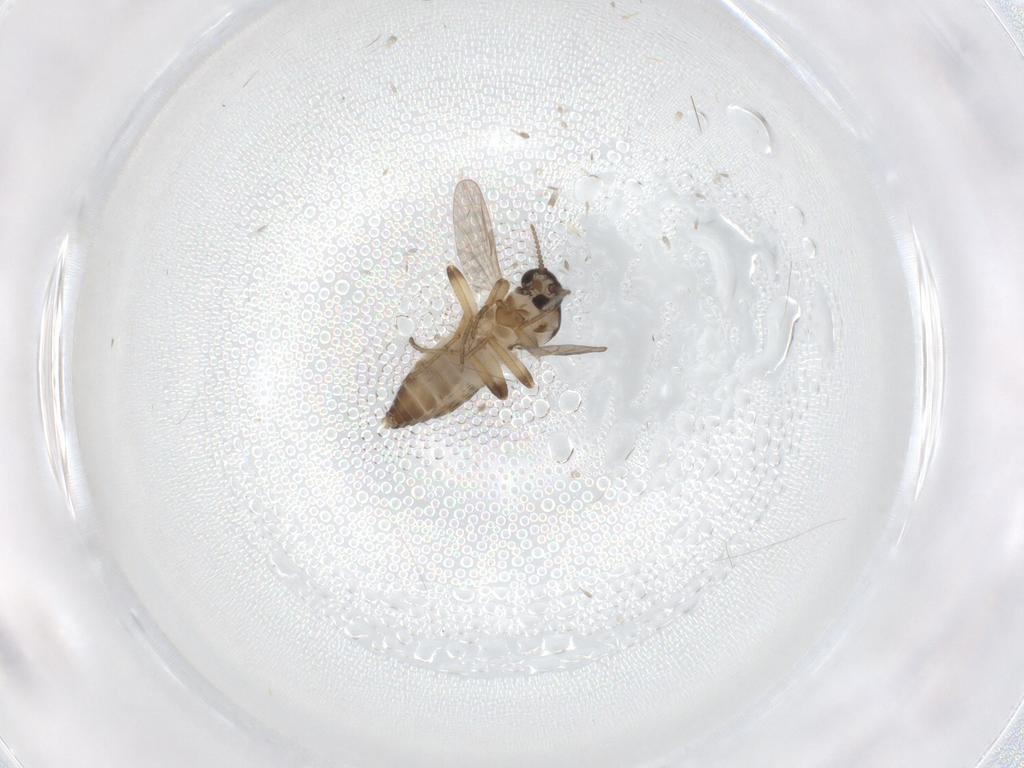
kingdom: Animalia
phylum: Arthropoda
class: Insecta
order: Diptera
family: Ceratopogonidae
